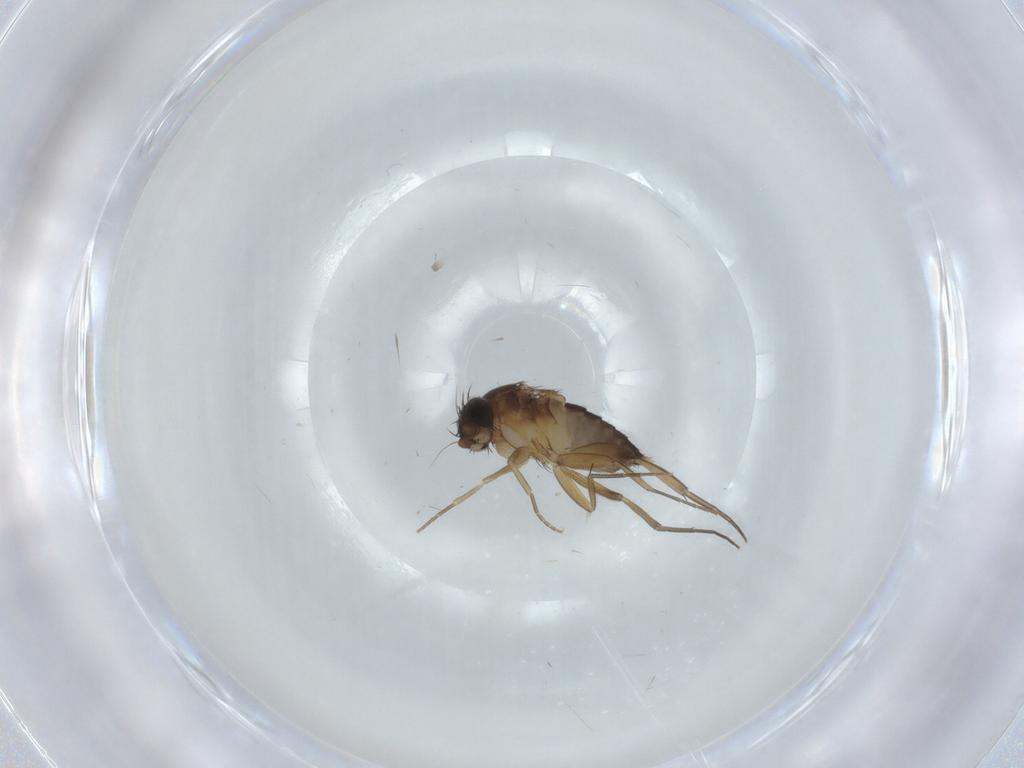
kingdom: Animalia
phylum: Arthropoda
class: Insecta
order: Diptera
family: Phoridae
